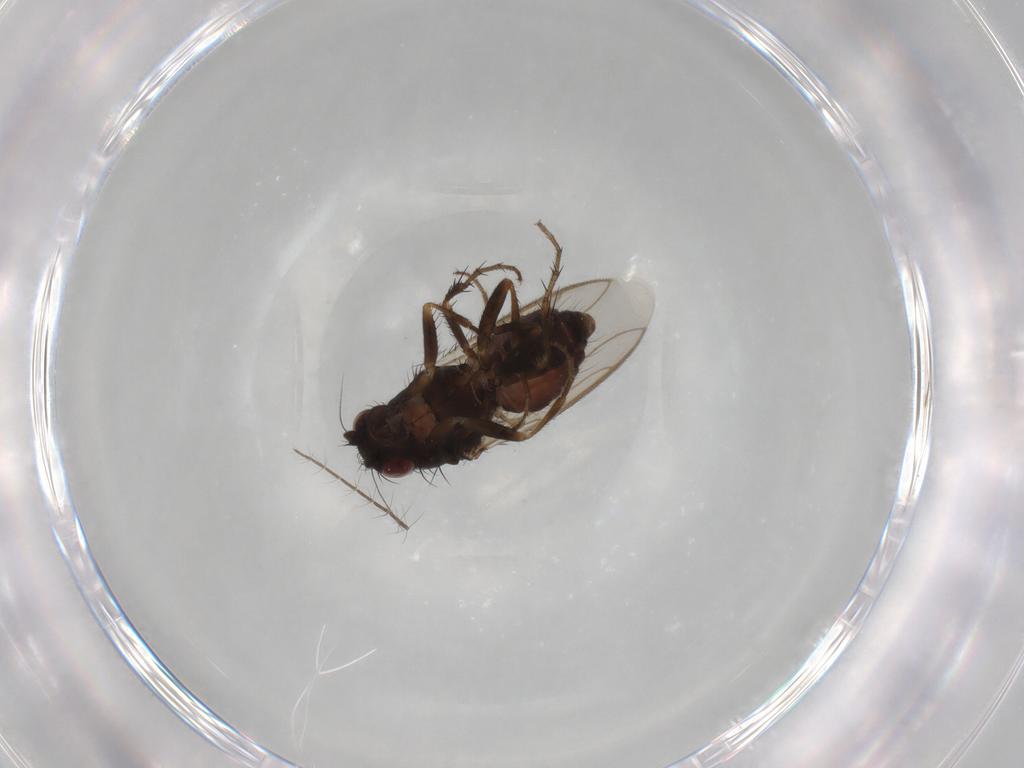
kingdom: Animalia
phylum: Arthropoda
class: Insecta
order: Diptera
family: Sphaeroceridae
